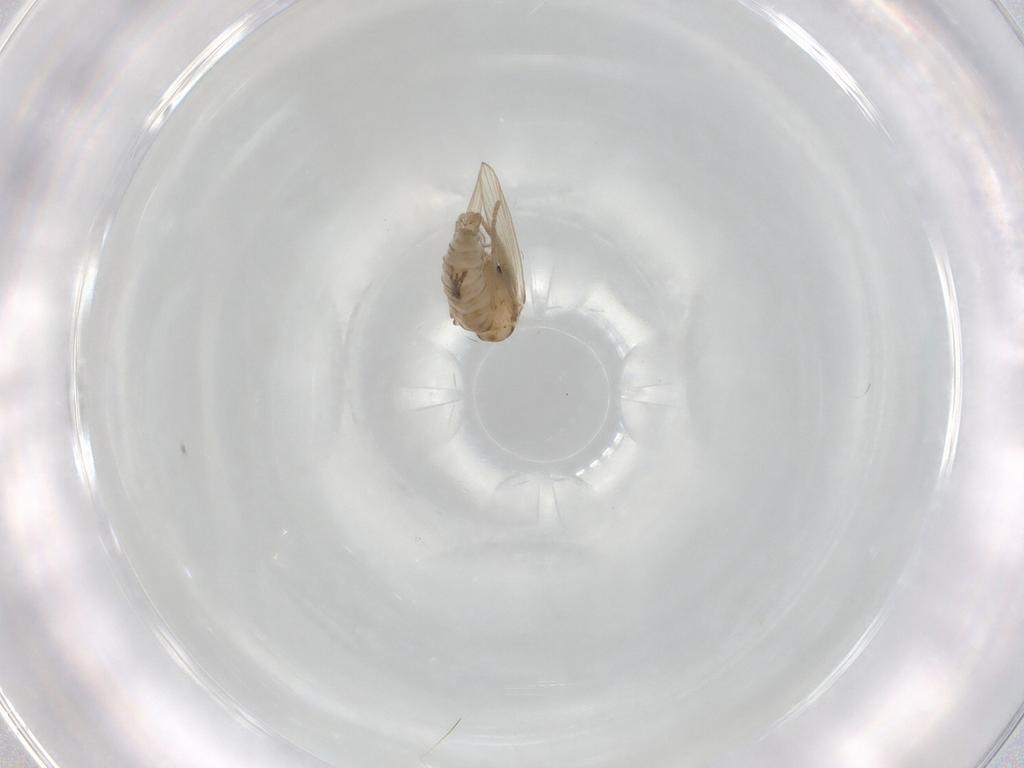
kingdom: Animalia
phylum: Arthropoda
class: Insecta
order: Diptera
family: Psychodidae
